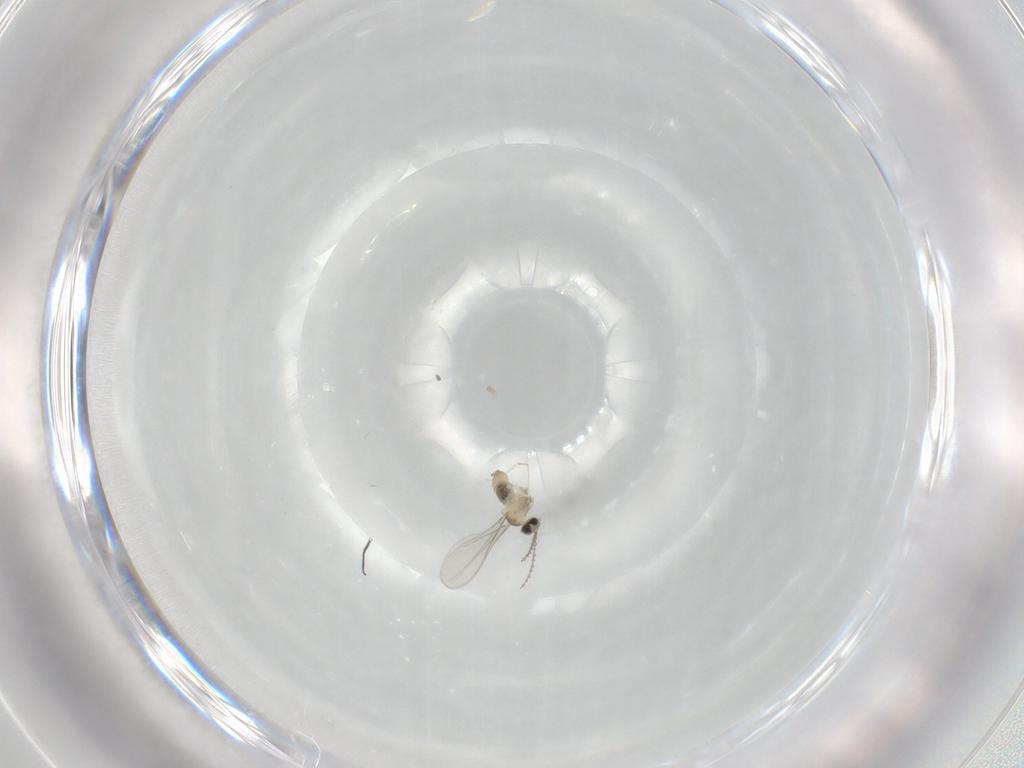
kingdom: Animalia
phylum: Arthropoda
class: Insecta
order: Diptera
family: Cecidomyiidae
